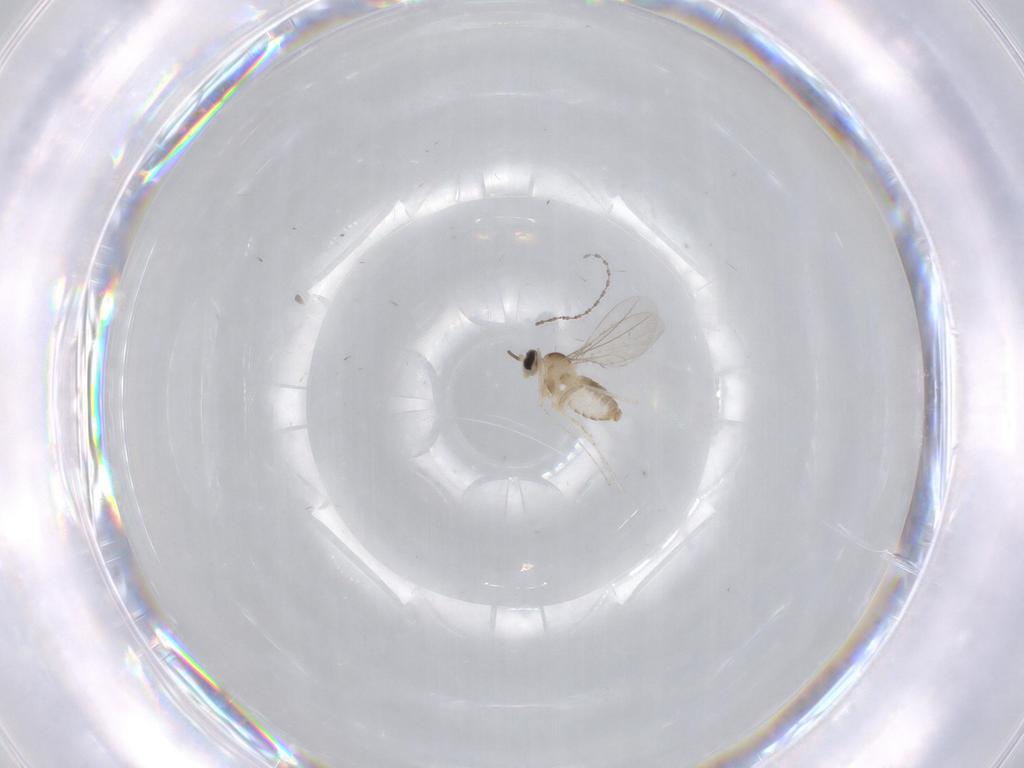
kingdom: Animalia
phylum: Arthropoda
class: Insecta
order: Diptera
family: Cecidomyiidae
